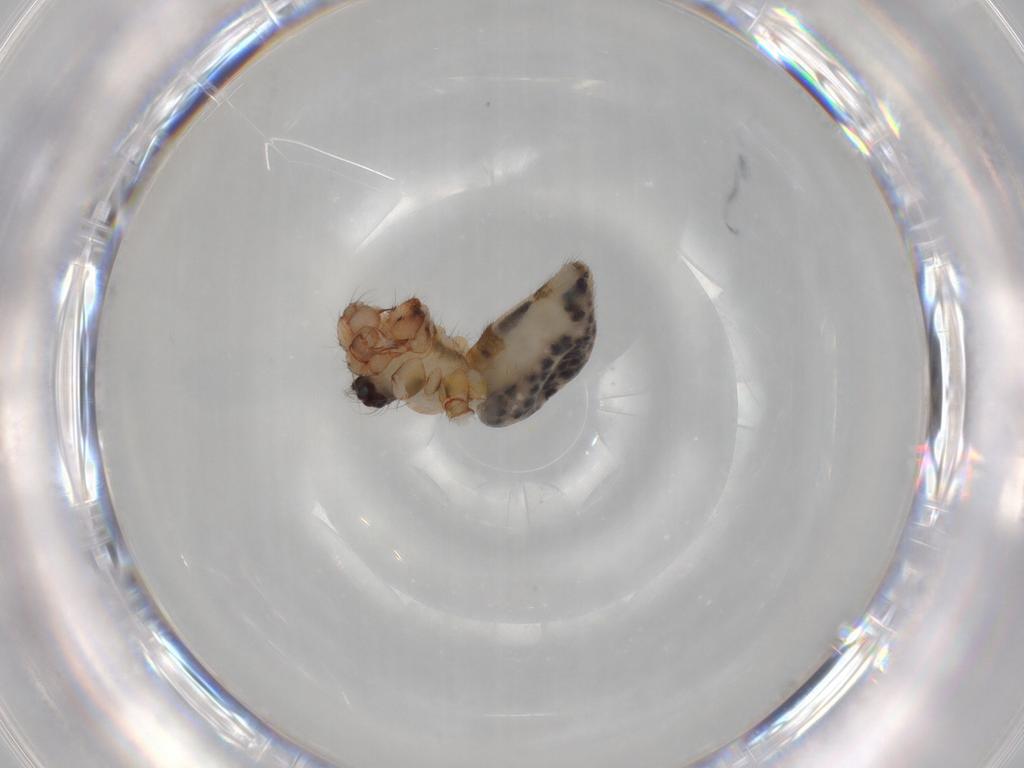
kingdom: Animalia
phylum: Arthropoda
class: Arachnida
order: Araneae
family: Pholcidae
